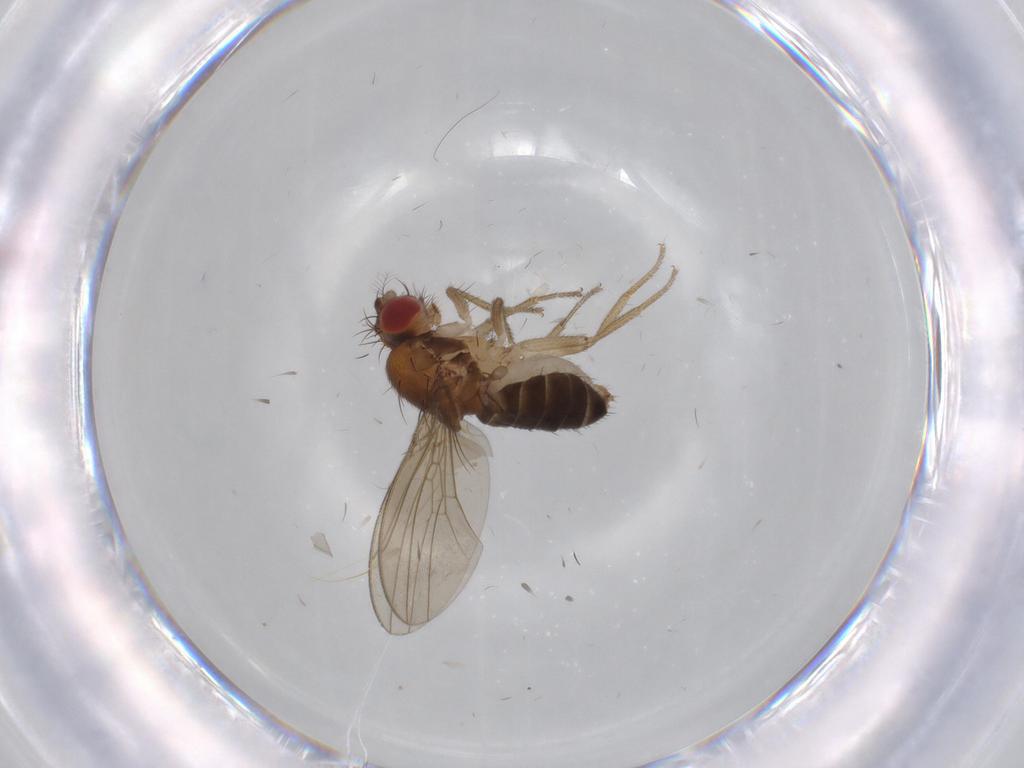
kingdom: Animalia
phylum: Arthropoda
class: Insecta
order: Diptera
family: Drosophilidae
